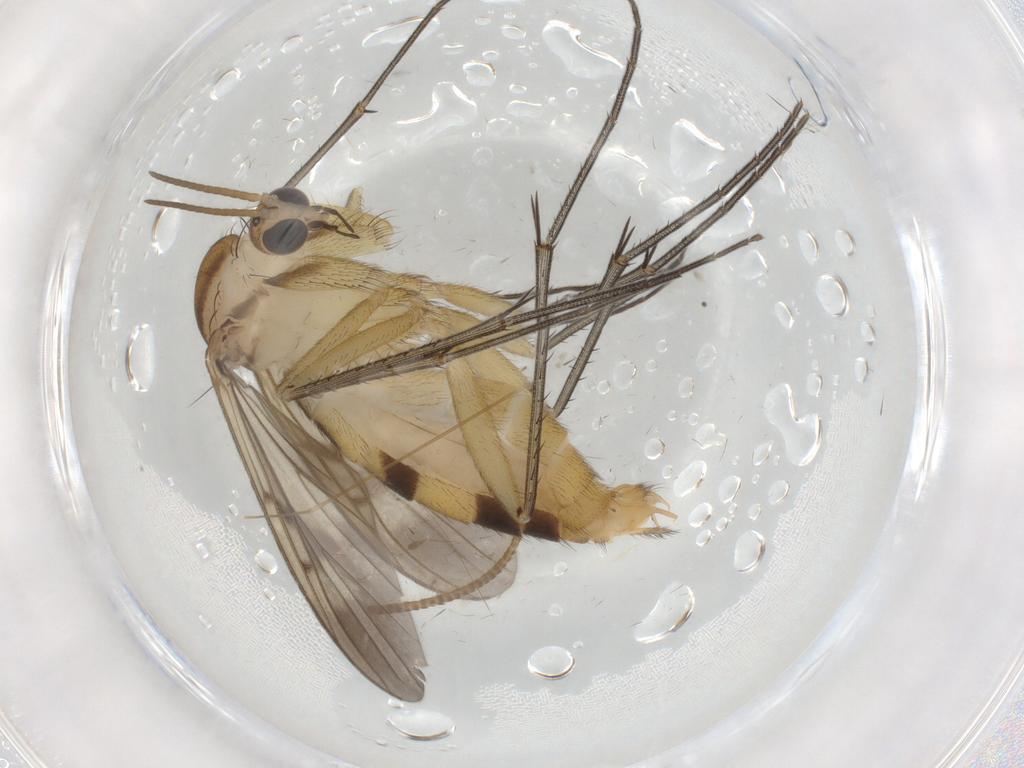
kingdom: Animalia
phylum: Arthropoda
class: Insecta
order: Diptera
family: Mycetophilidae
